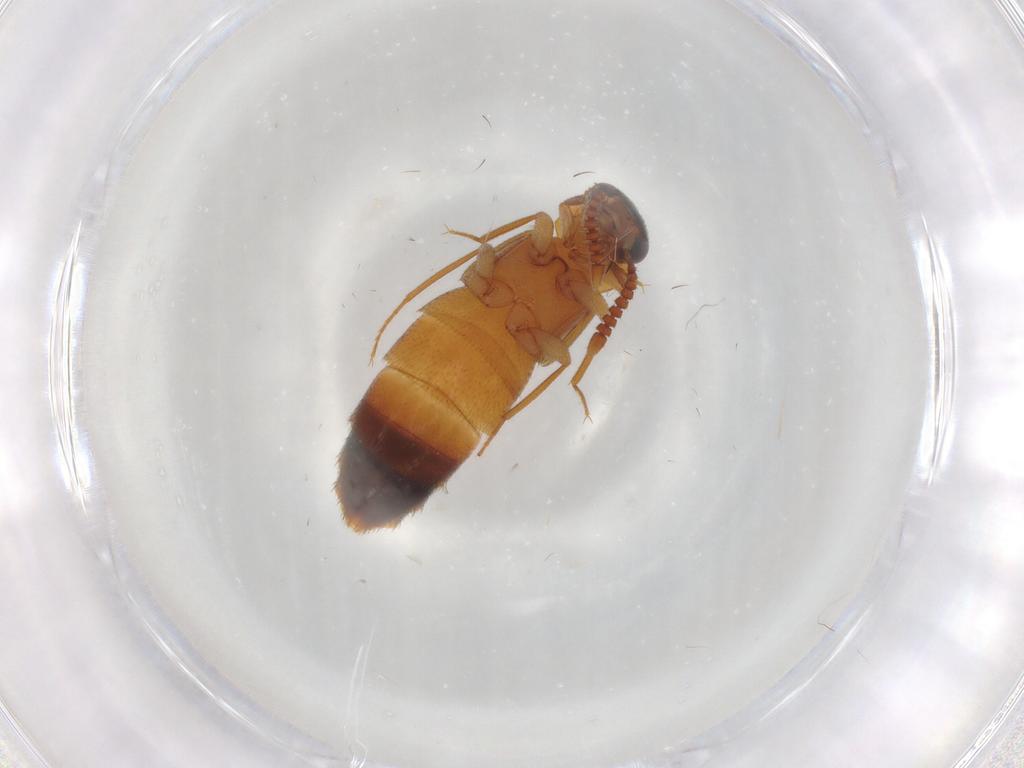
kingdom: Animalia
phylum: Arthropoda
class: Insecta
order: Coleoptera
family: Staphylinidae
